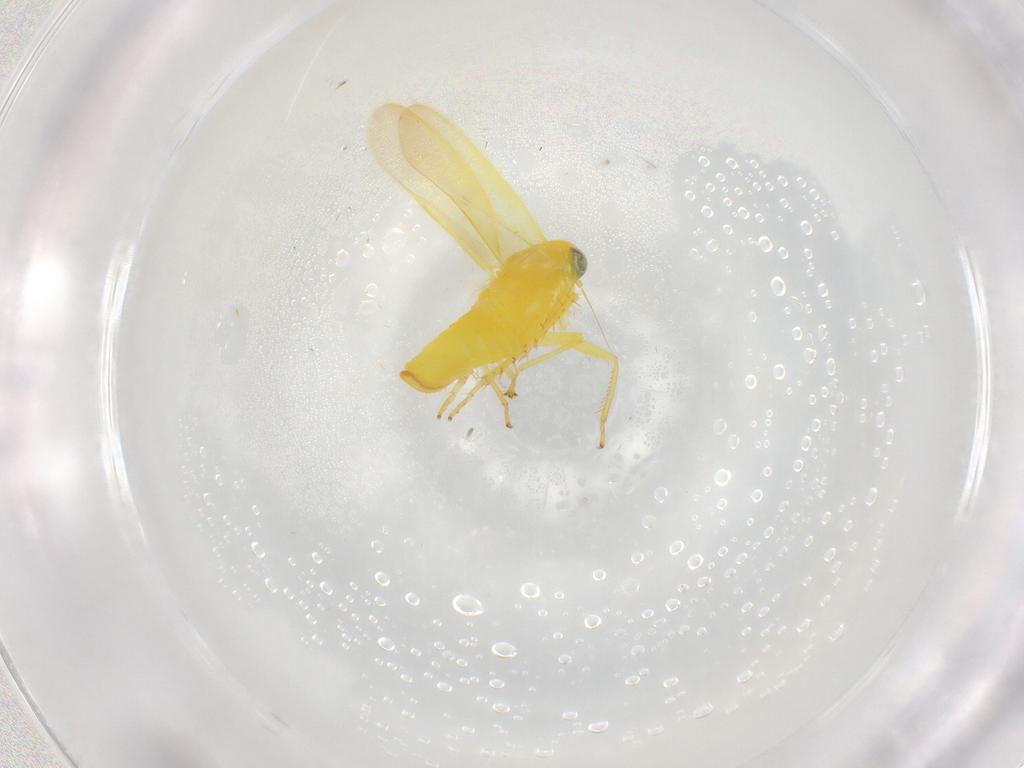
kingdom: Animalia
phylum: Arthropoda
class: Insecta
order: Hemiptera
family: Cicadellidae
